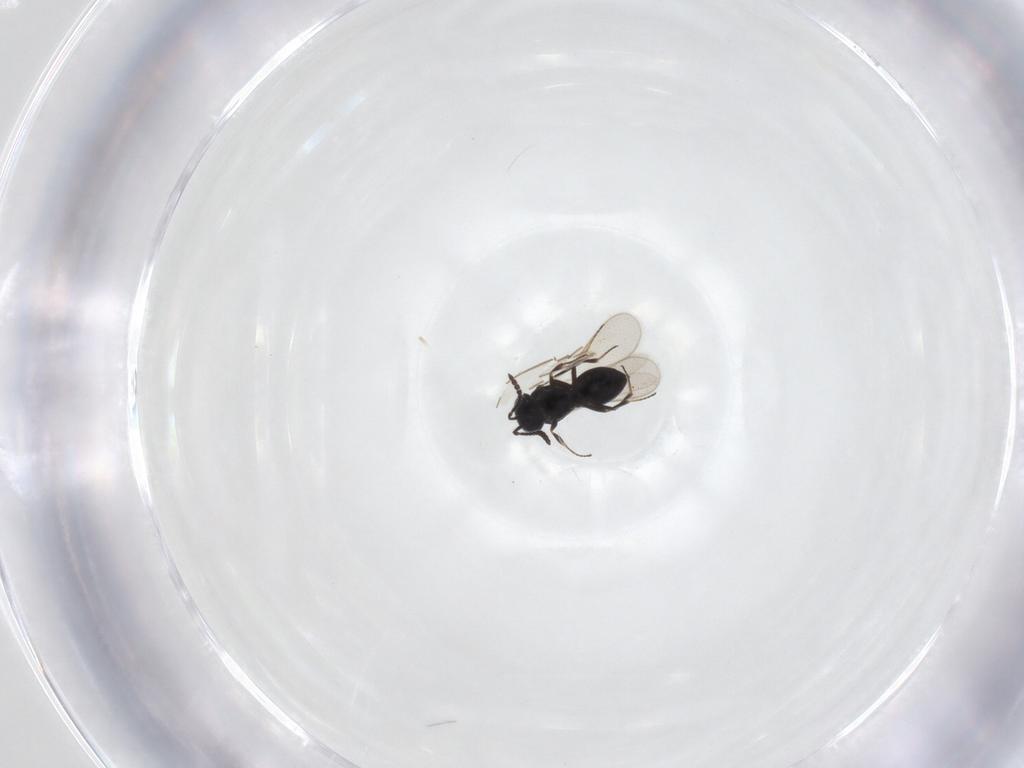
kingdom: Animalia
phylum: Arthropoda
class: Insecta
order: Hymenoptera
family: Scelionidae
